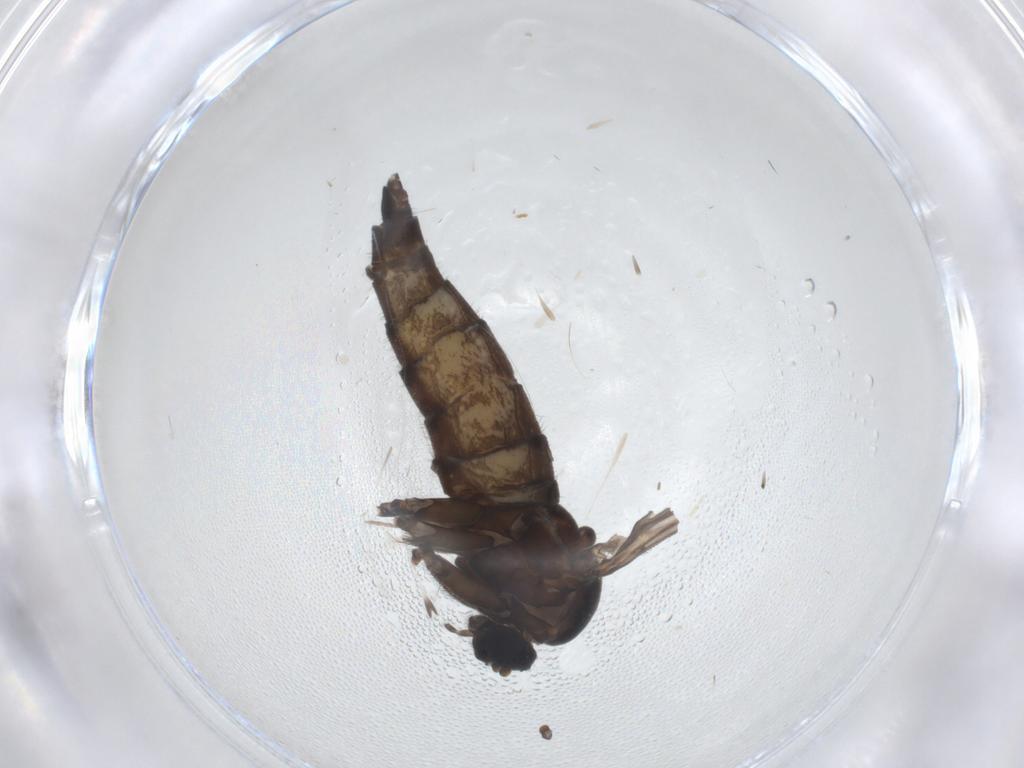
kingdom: Animalia
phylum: Arthropoda
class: Insecta
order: Diptera
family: Sciaridae
